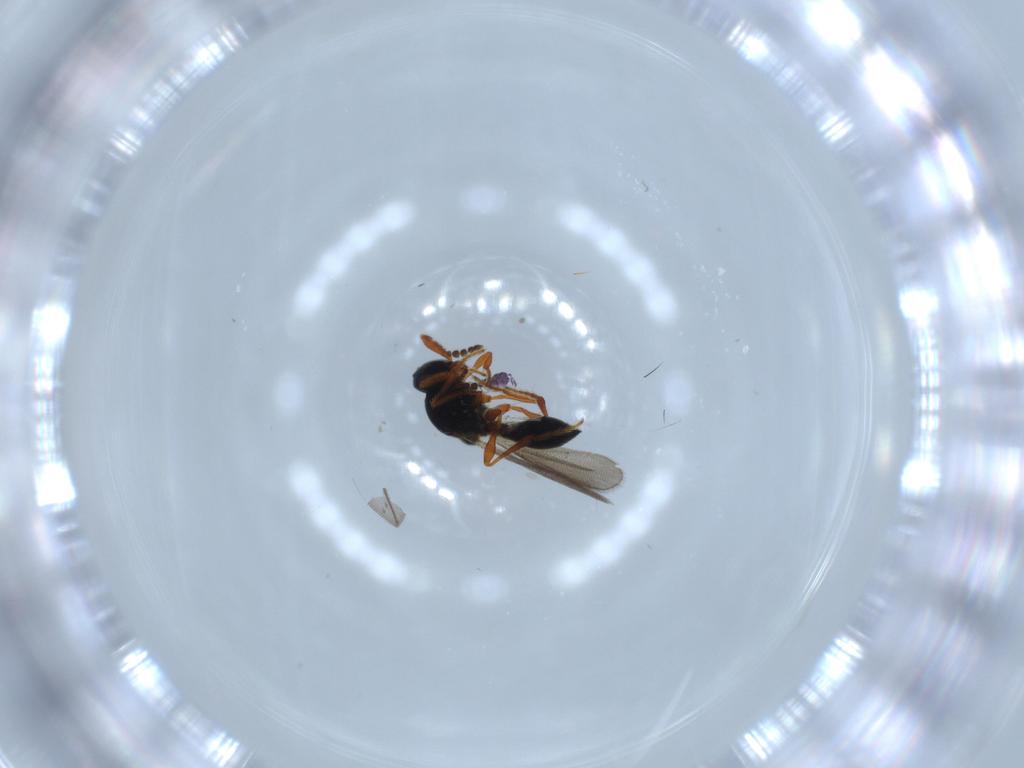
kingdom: Animalia
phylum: Arthropoda
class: Insecta
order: Hymenoptera
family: Platygastridae
